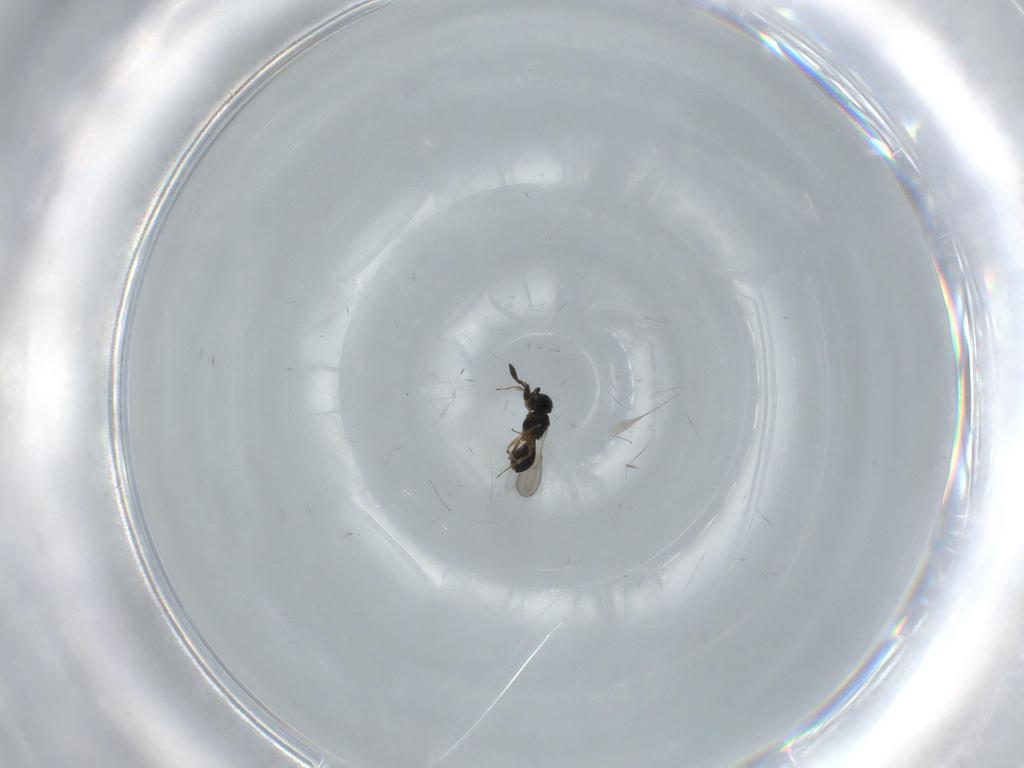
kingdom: Animalia
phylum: Arthropoda
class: Insecta
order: Hymenoptera
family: Scelionidae
